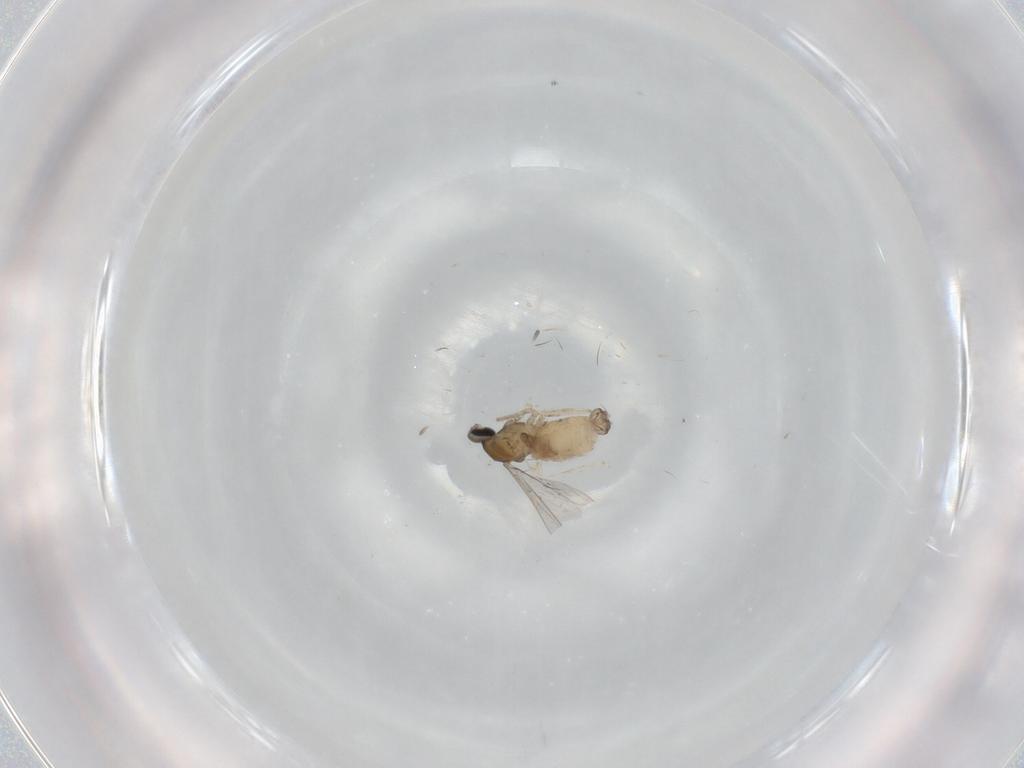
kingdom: Animalia
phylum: Arthropoda
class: Insecta
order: Diptera
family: Cecidomyiidae
